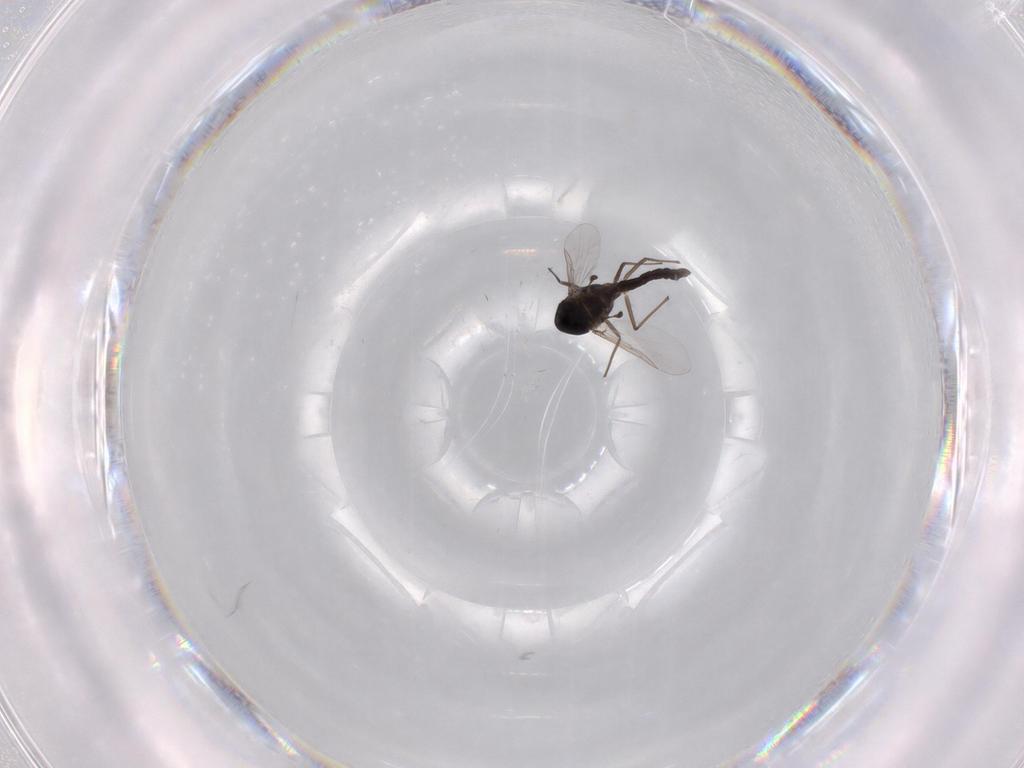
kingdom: Animalia
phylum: Arthropoda
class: Insecta
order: Diptera
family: Chironomidae
